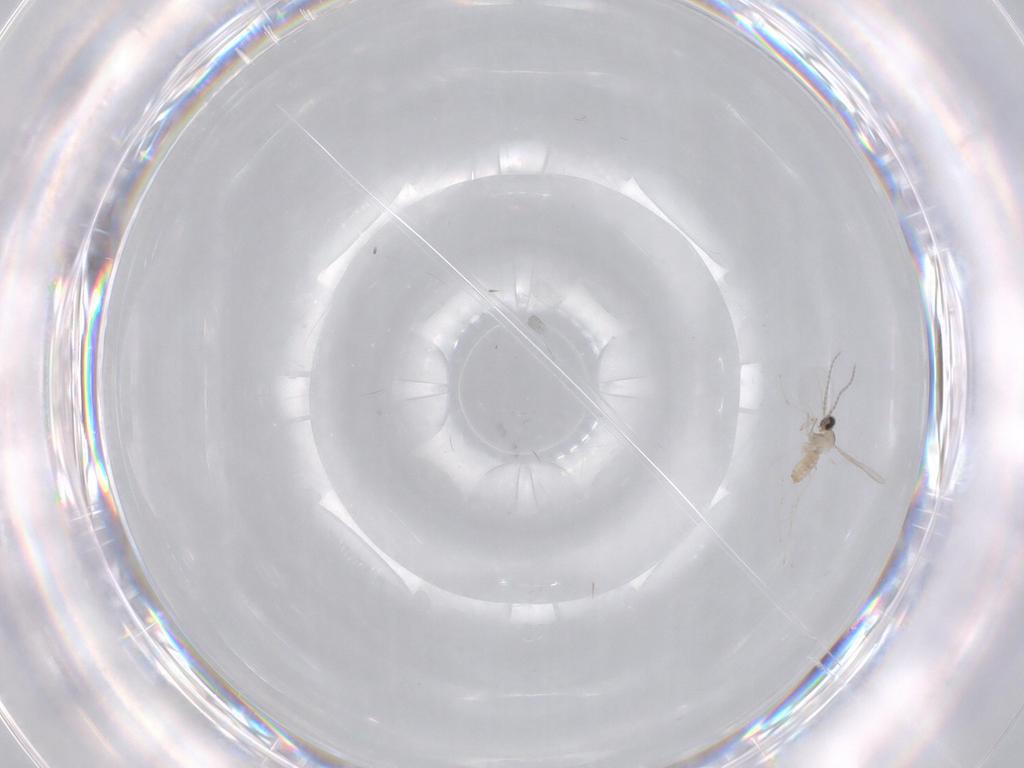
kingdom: Animalia
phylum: Arthropoda
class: Insecta
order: Diptera
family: Cecidomyiidae
